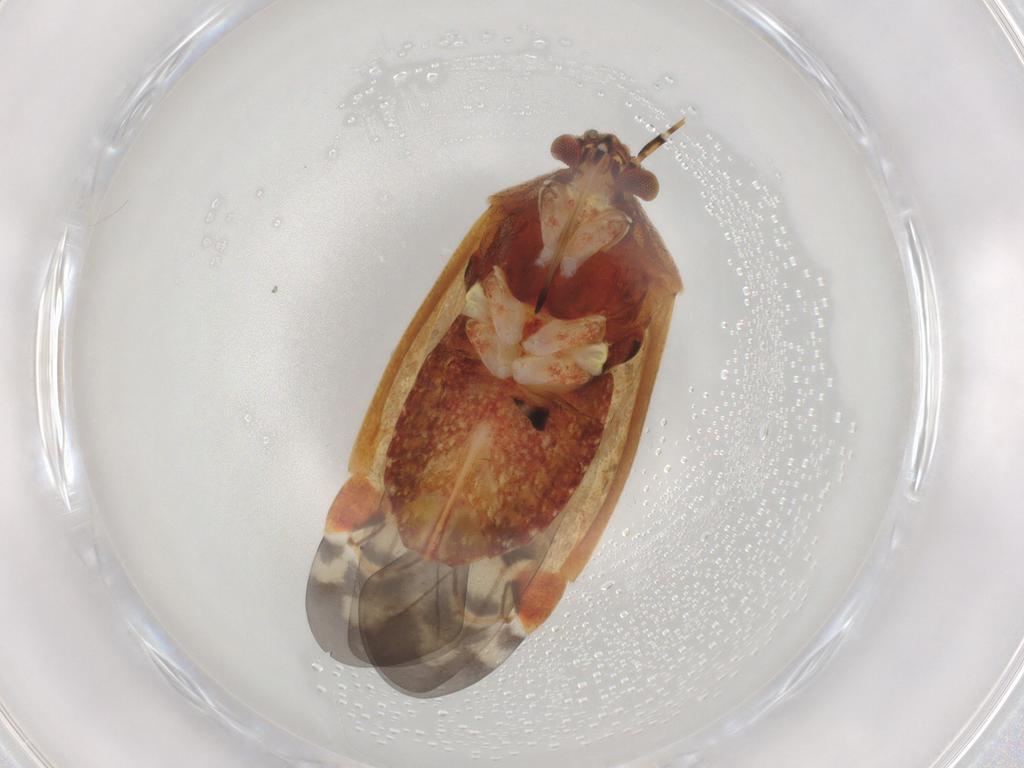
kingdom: Animalia
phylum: Arthropoda
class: Insecta
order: Hemiptera
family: Miridae
